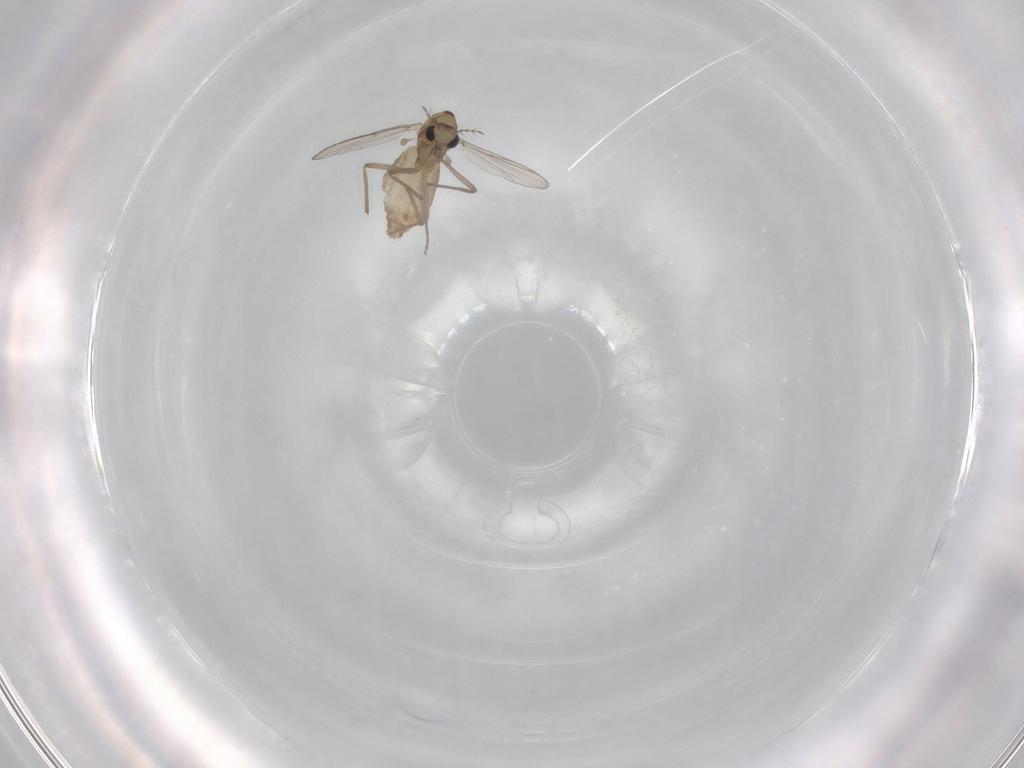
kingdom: Animalia
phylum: Arthropoda
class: Insecta
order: Diptera
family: Chironomidae
